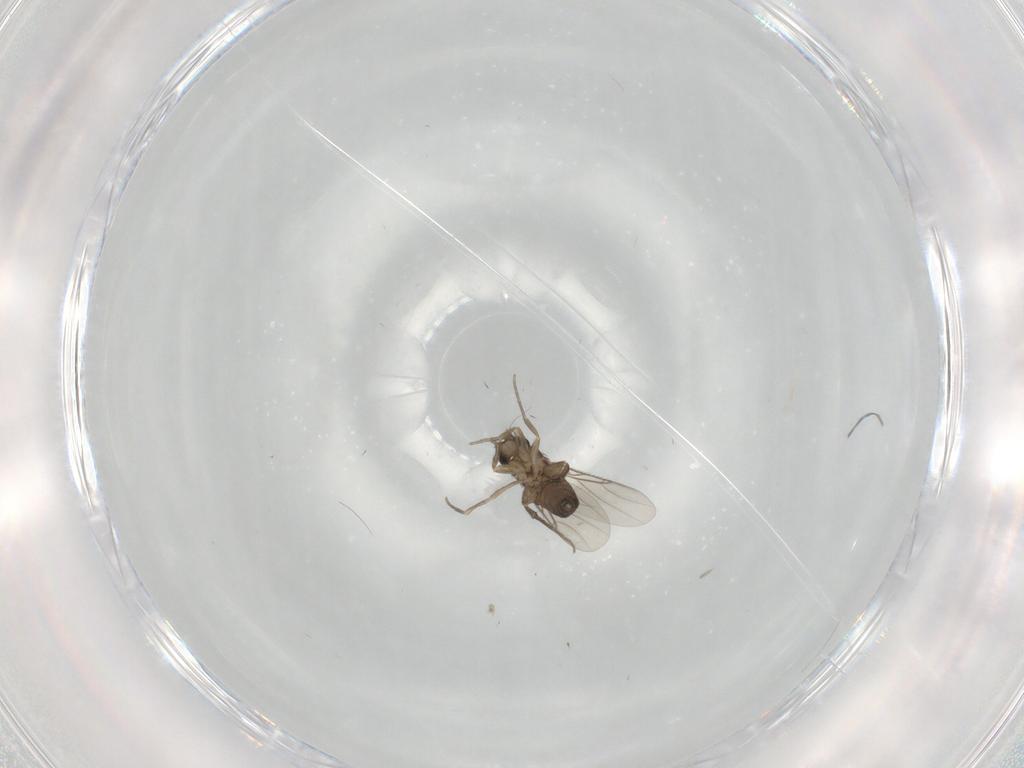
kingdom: Animalia
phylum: Arthropoda
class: Insecta
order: Diptera
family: Phoridae
